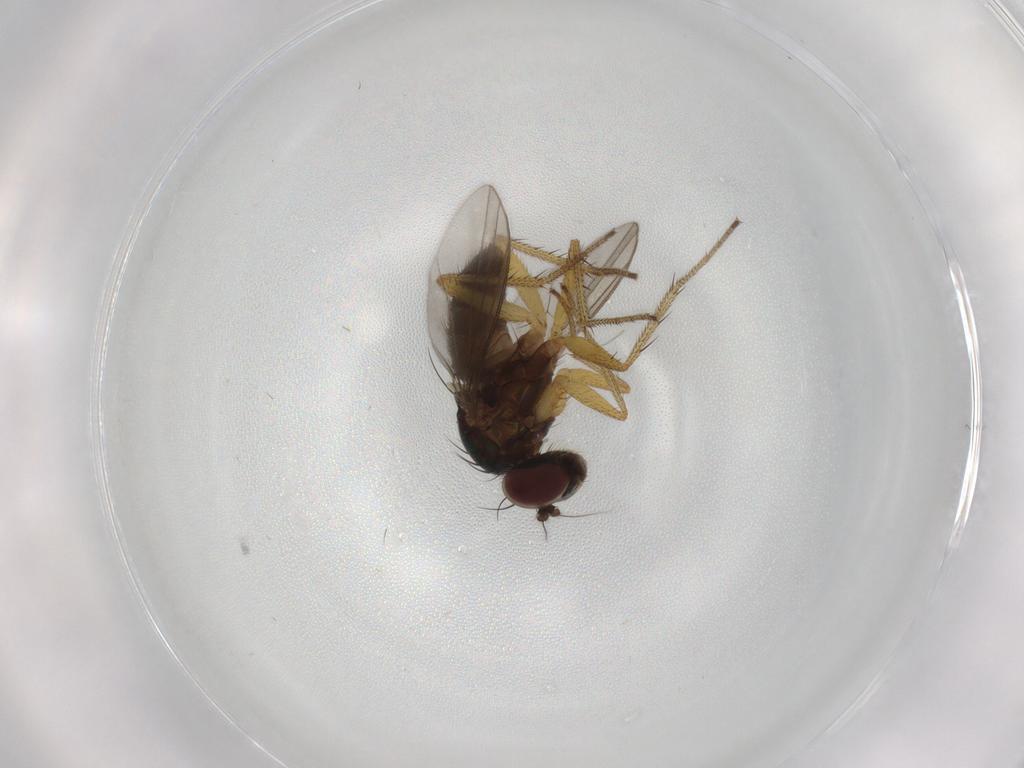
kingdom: Animalia
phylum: Arthropoda
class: Insecta
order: Diptera
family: Dolichopodidae
